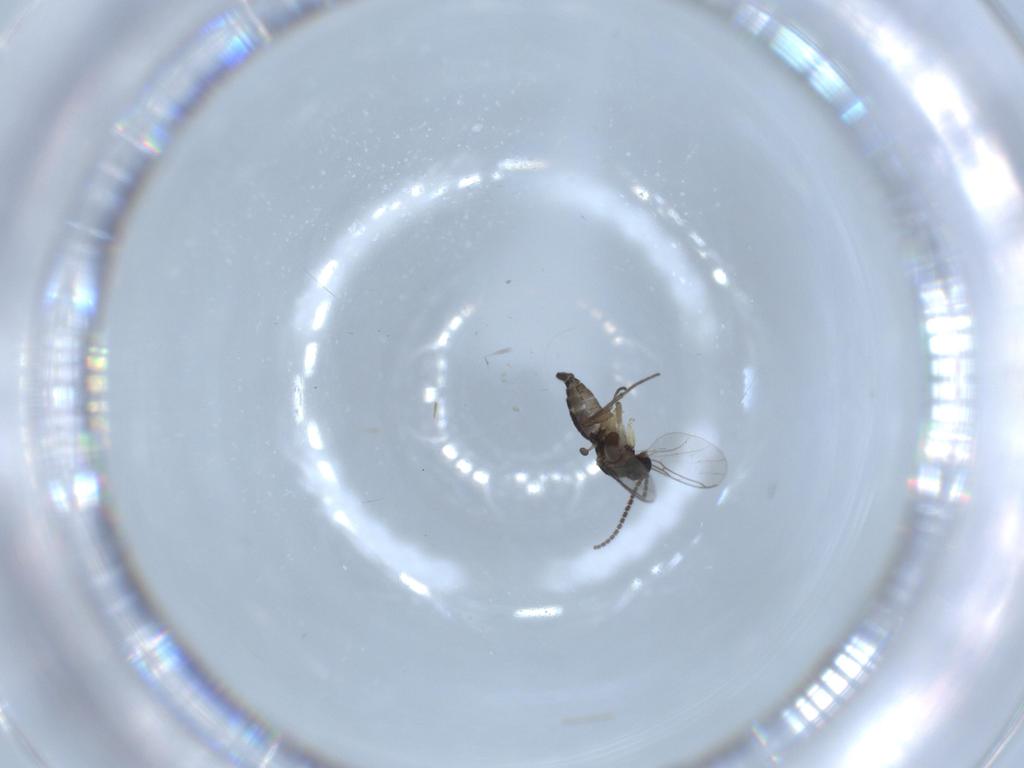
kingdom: Animalia
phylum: Arthropoda
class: Insecta
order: Diptera
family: Sciaridae
